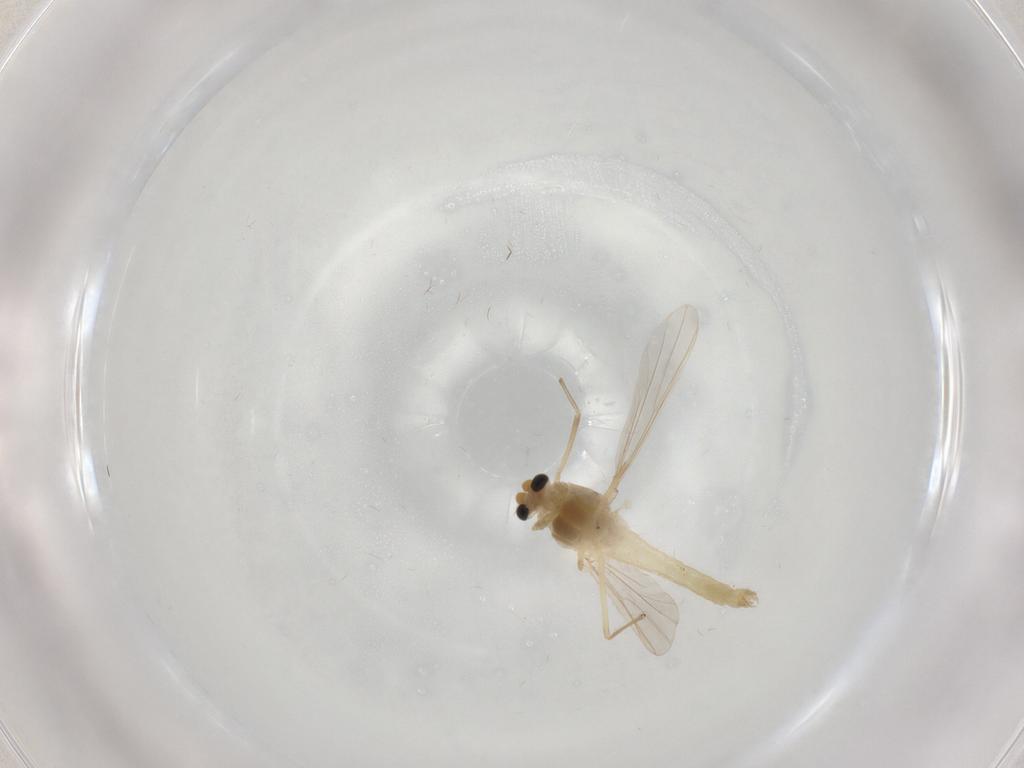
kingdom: Animalia
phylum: Arthropoda
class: Insecta
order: Diptera
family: Chironomidae
